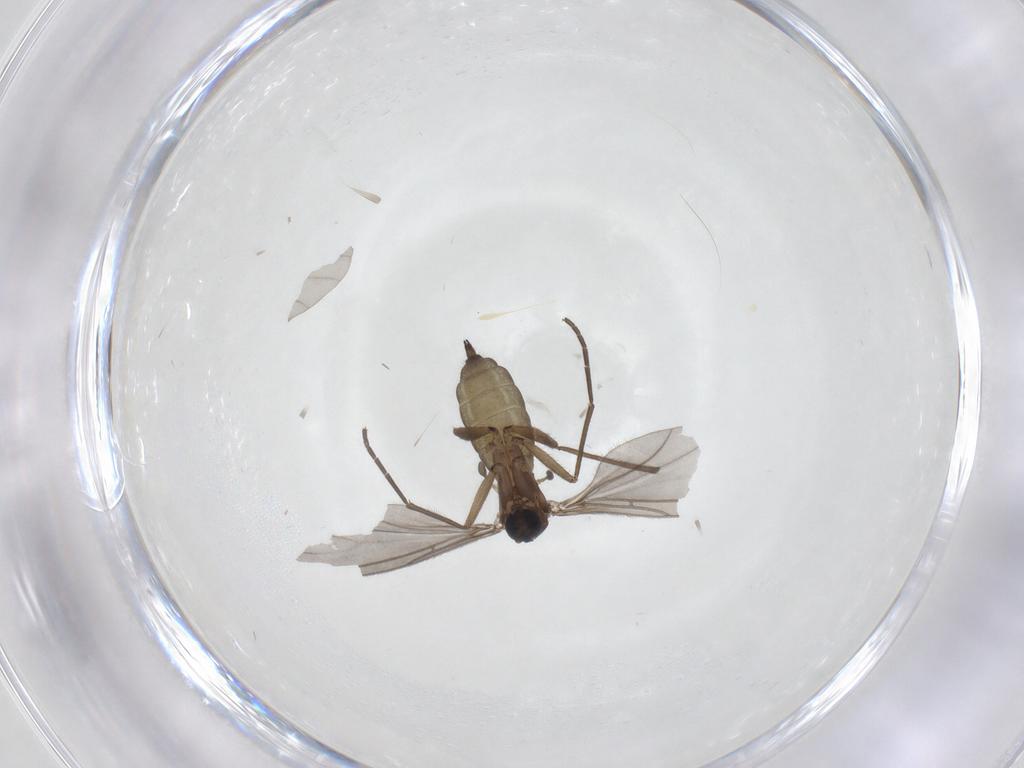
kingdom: Animalia
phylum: Arthropoda
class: Insecta
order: Diptera
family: Sciaridae
